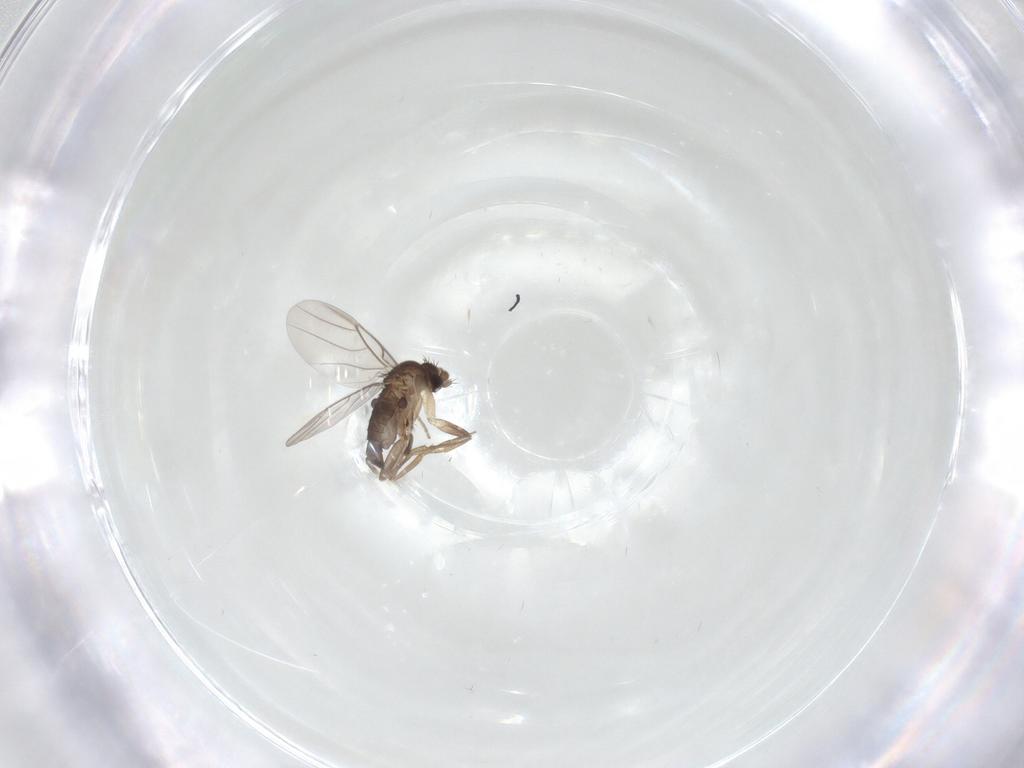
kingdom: Animalia
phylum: Arthropoda
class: Insecta
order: Diptera
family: Phoridae
